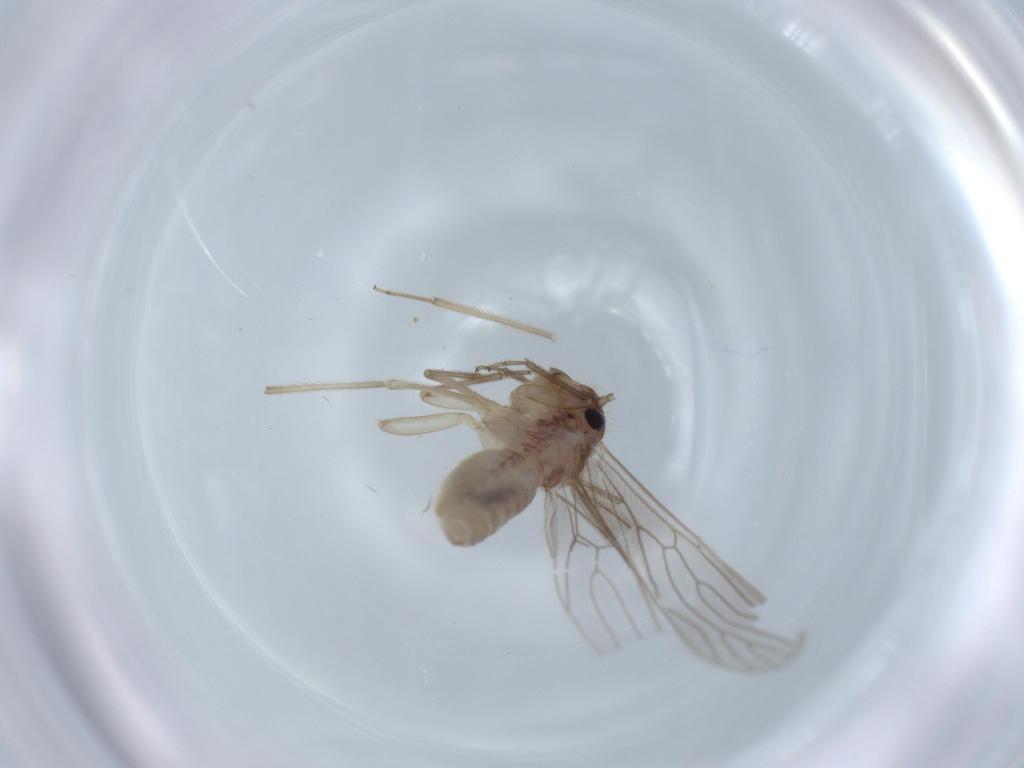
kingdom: Animalia
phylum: Arthropoda
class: Insecta
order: Psocodea
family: Cladiopsocidae
